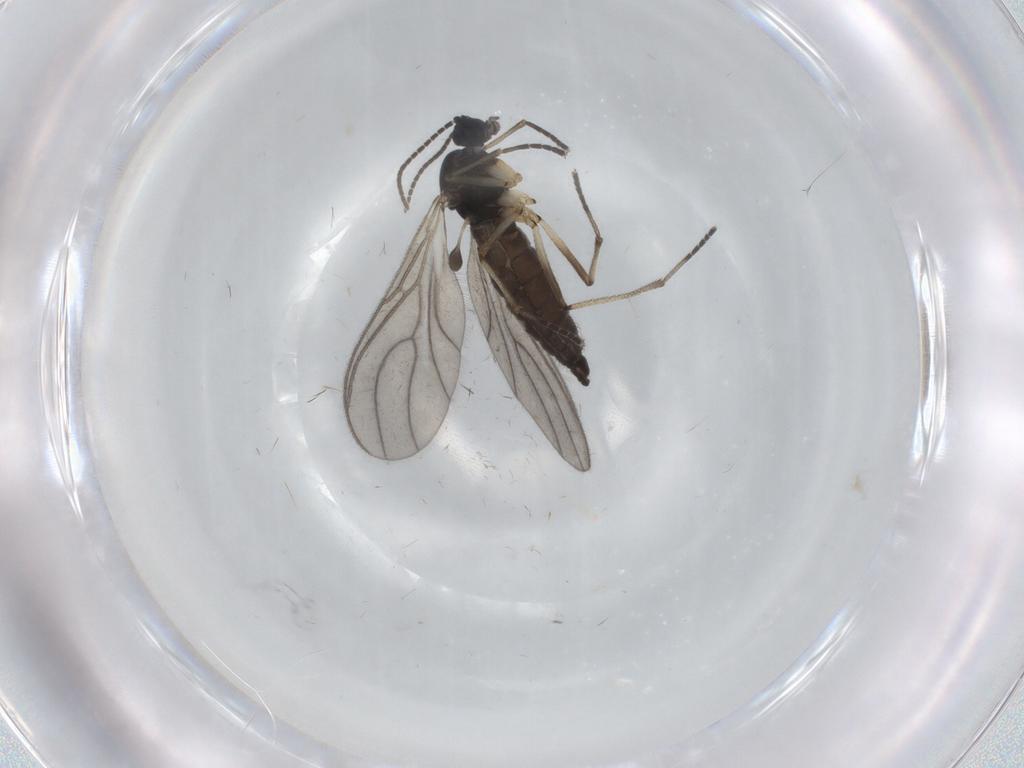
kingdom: Animalia
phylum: Arthropoda
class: Insecta
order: Diptera
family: Sciaridae
